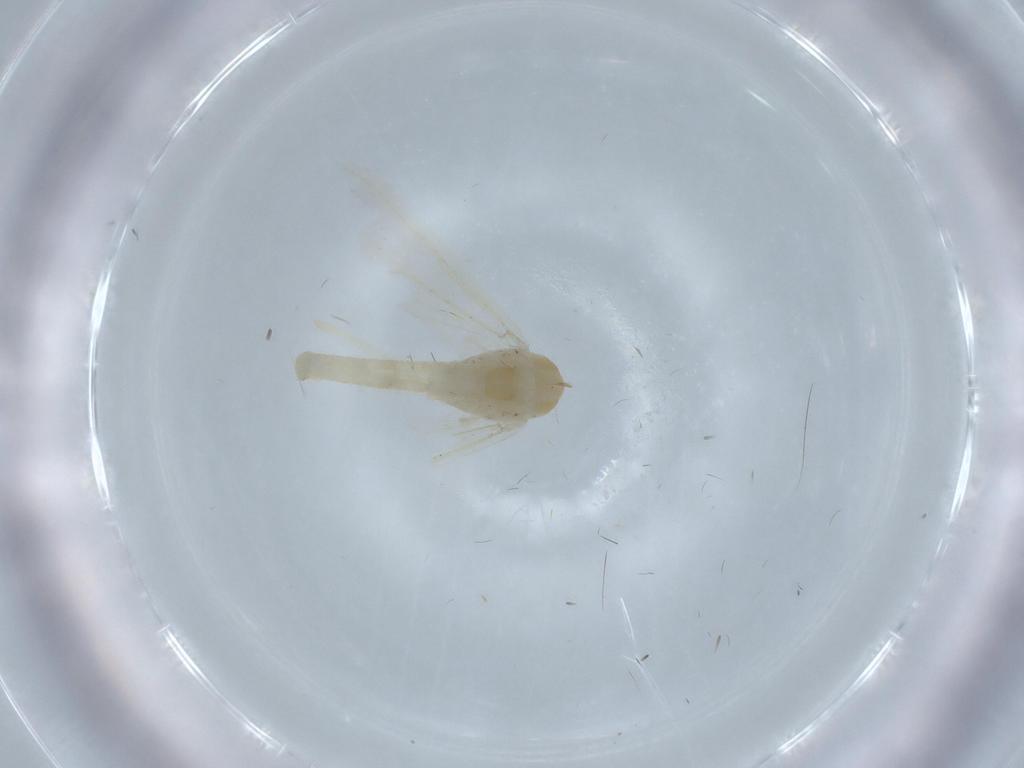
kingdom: Animalia
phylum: Arthropoda
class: Insecta
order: Diptera
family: Chironomidae
